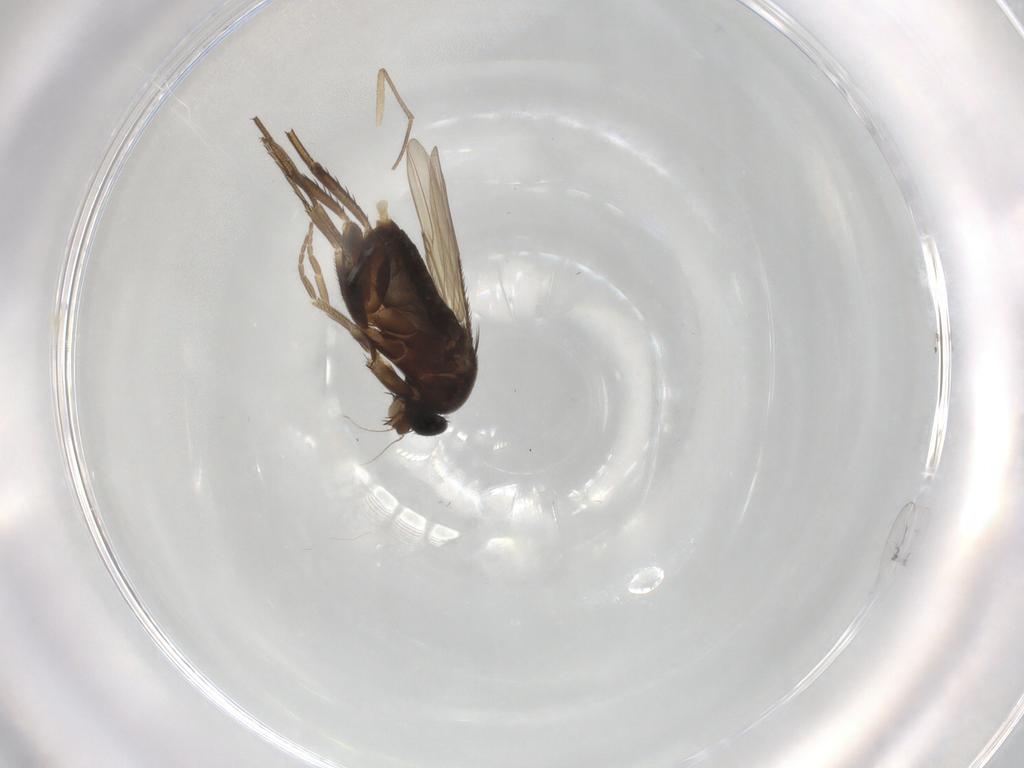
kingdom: Animalia
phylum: Arthropoda
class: Insecta
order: Diptera
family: Phoridae
